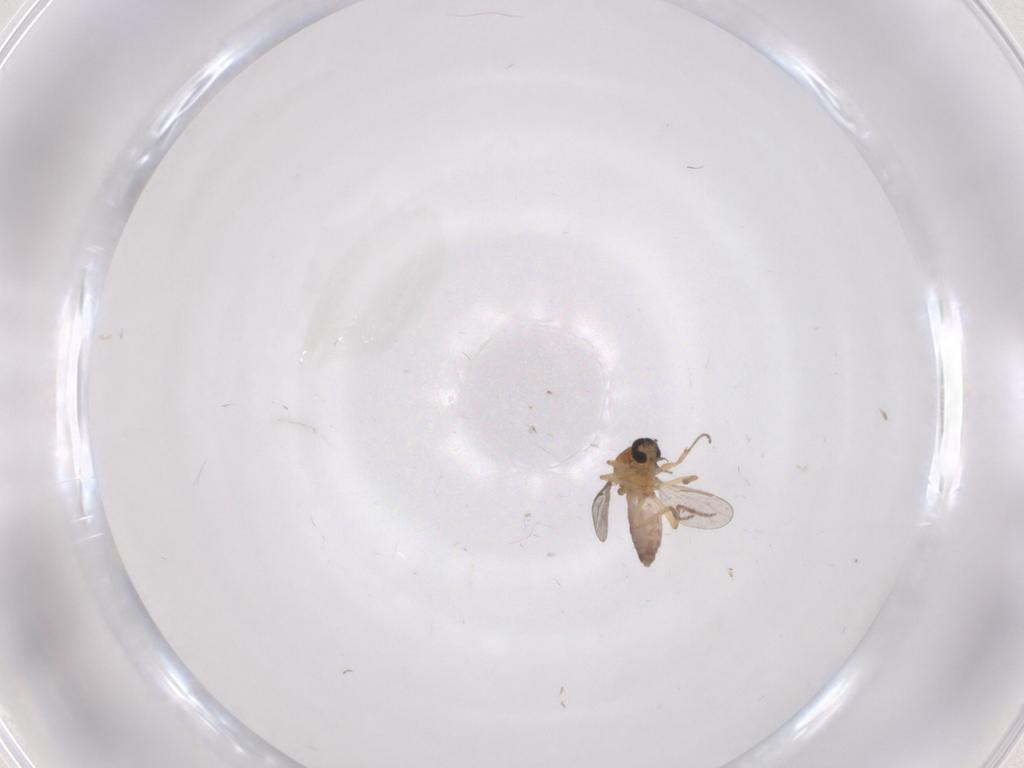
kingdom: Animalia
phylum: Arthropoda
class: Insecta
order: Diptera
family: Ceratopogonidae
